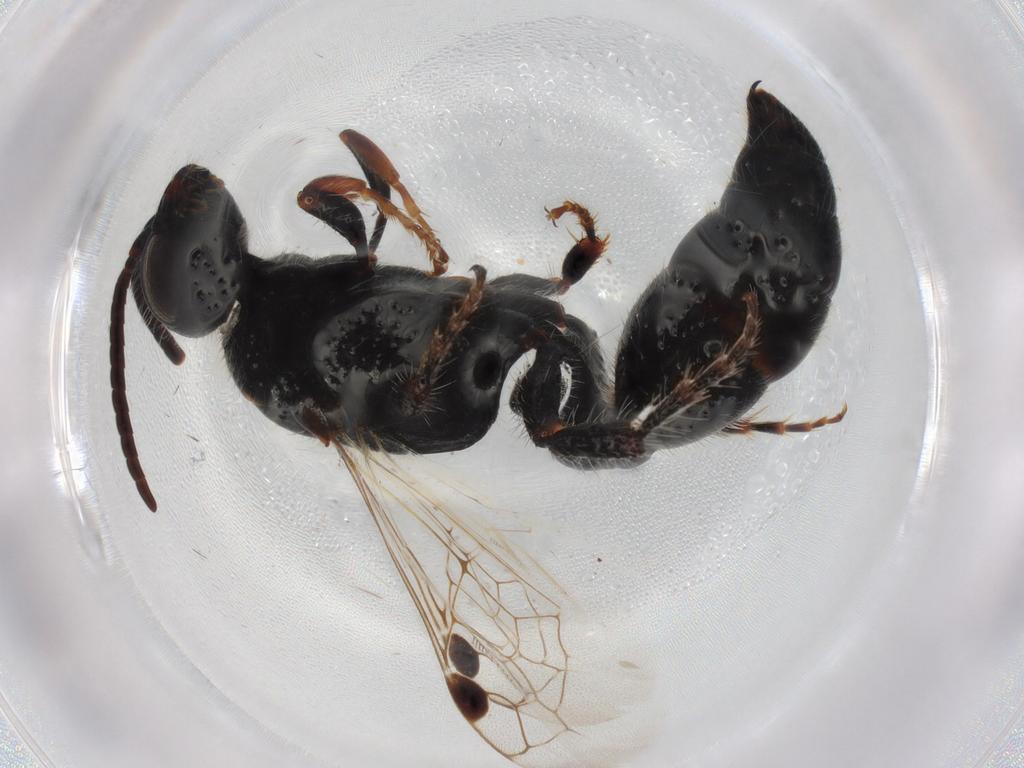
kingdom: Animalia
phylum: Arthropoda
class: Insecta
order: Hymenoptera
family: Tiphiidae
